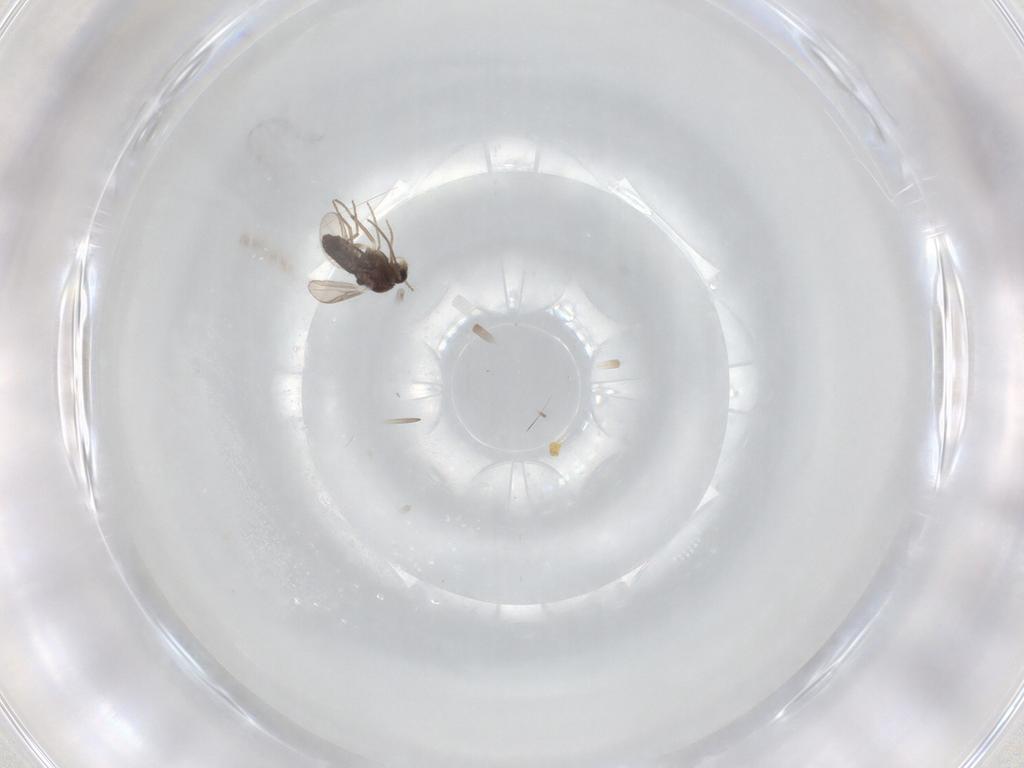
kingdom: Animalia
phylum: Arthropoda
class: Insecta
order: Diptera
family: Chironomidae
